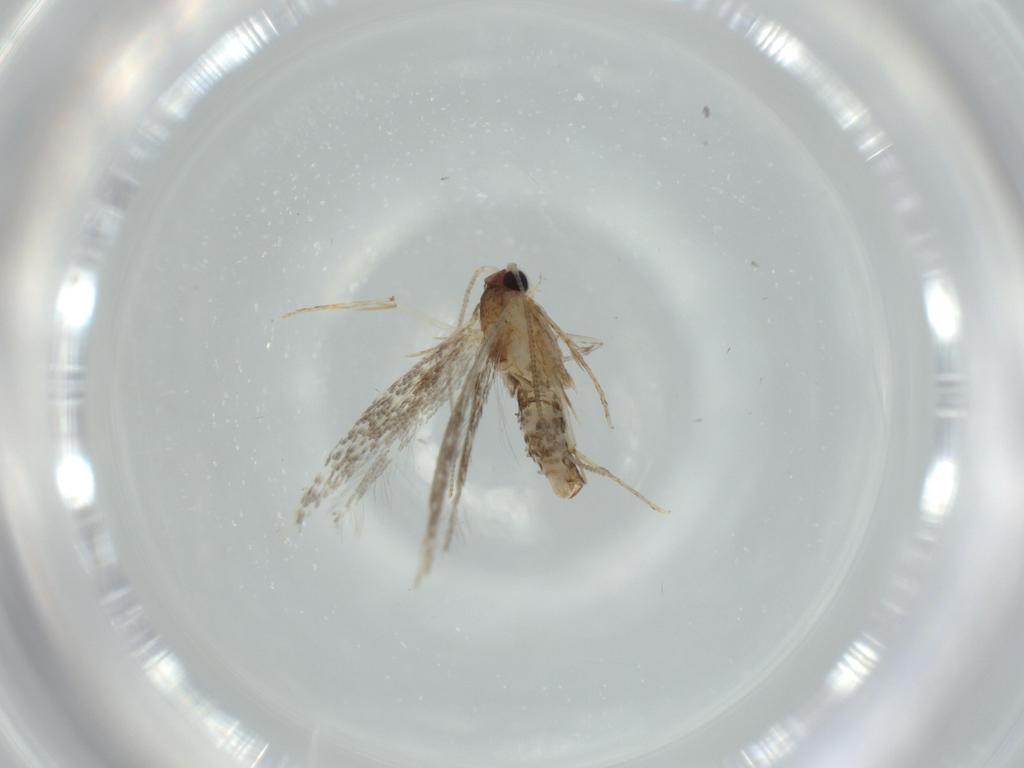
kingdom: Animalia
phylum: Arthropoda
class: Insecta
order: Lepidoptera
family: Tineidae
